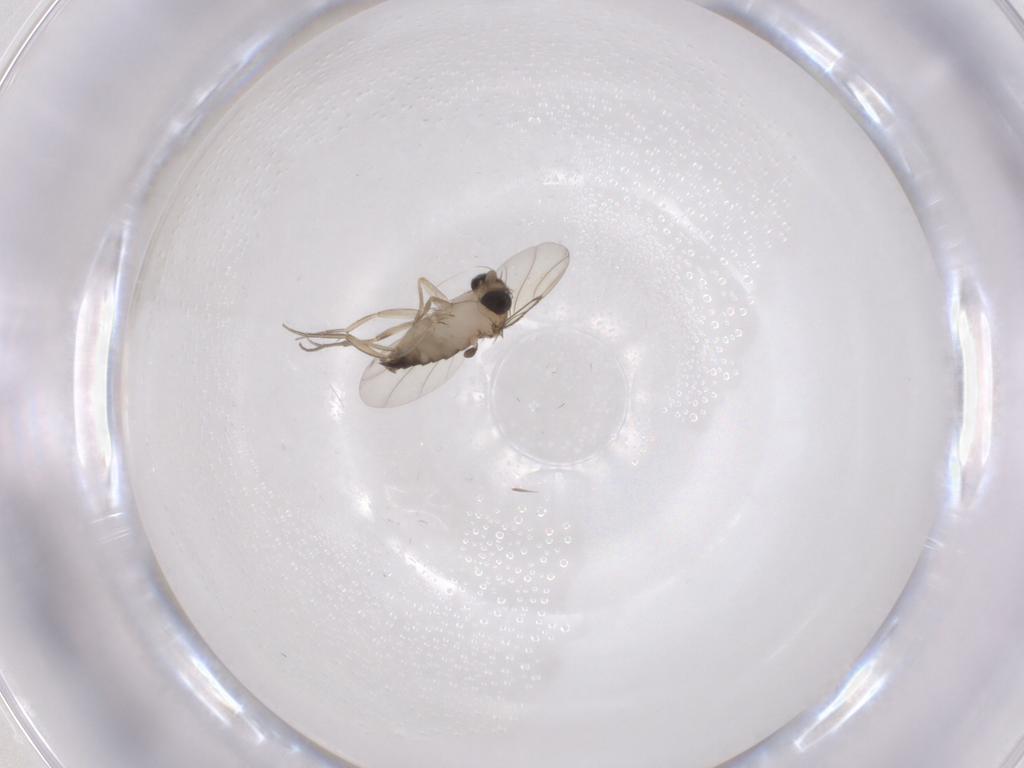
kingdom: Animalia
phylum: Arthropoda
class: Insecta
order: Diptera
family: Phoridae
